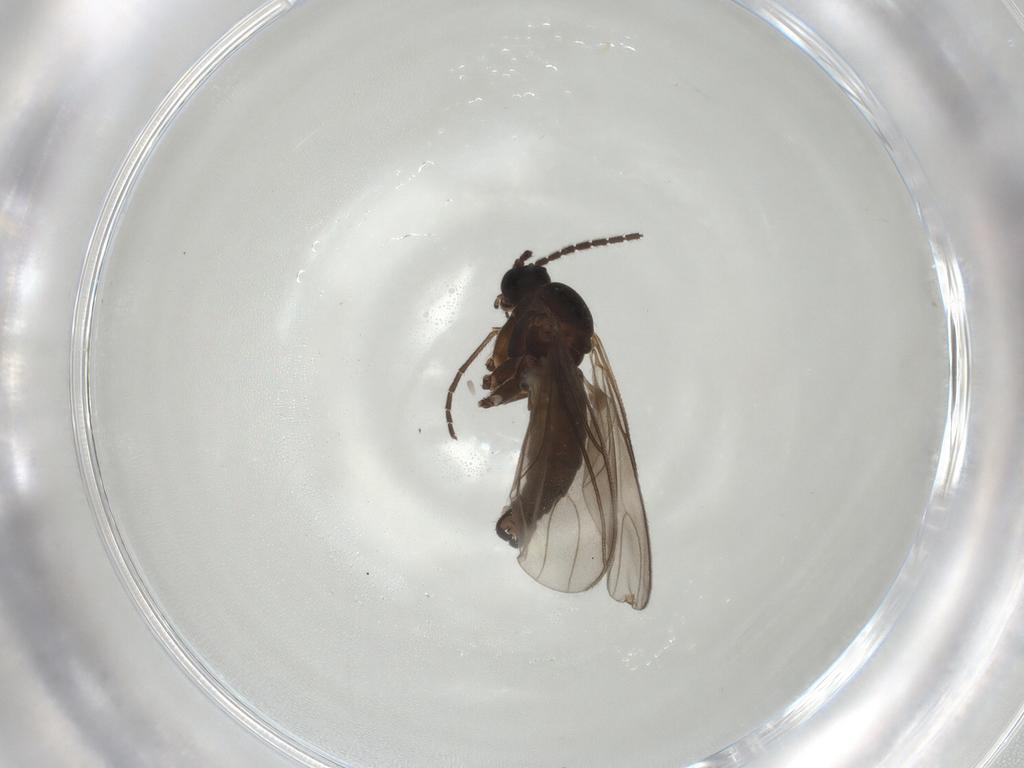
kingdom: Animalia
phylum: Arthropoda
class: Insecta
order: Diptera
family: Sciaridae
